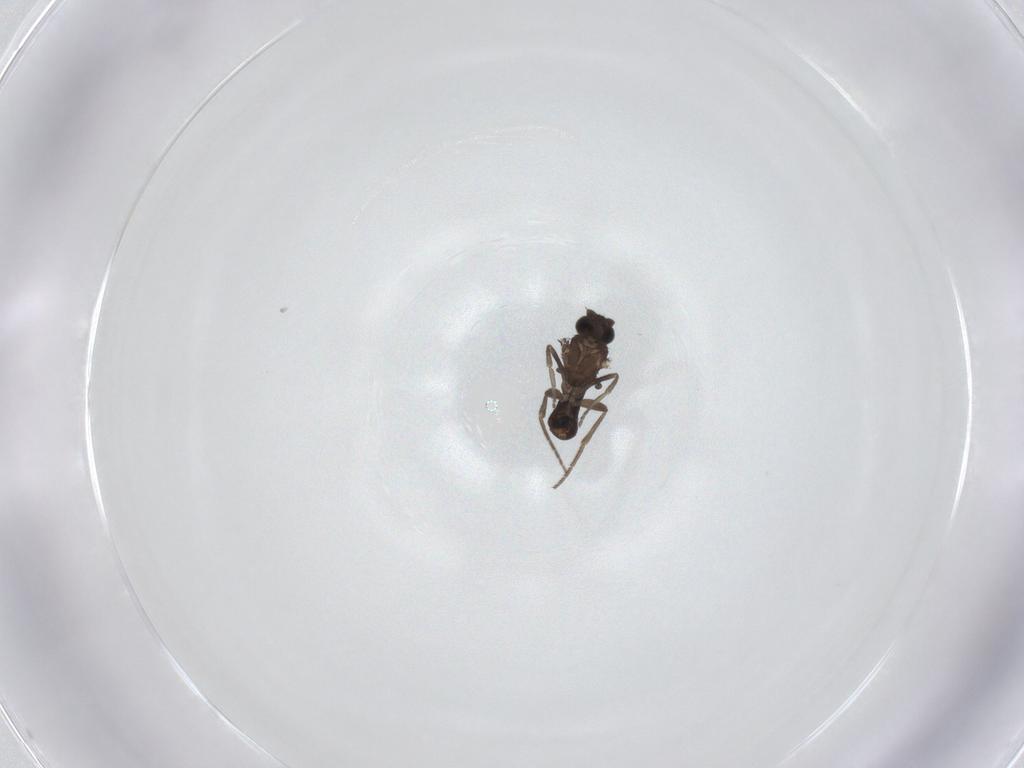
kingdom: Animalia
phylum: Arthropoda
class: Insecta
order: Diptera
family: Phoridae
